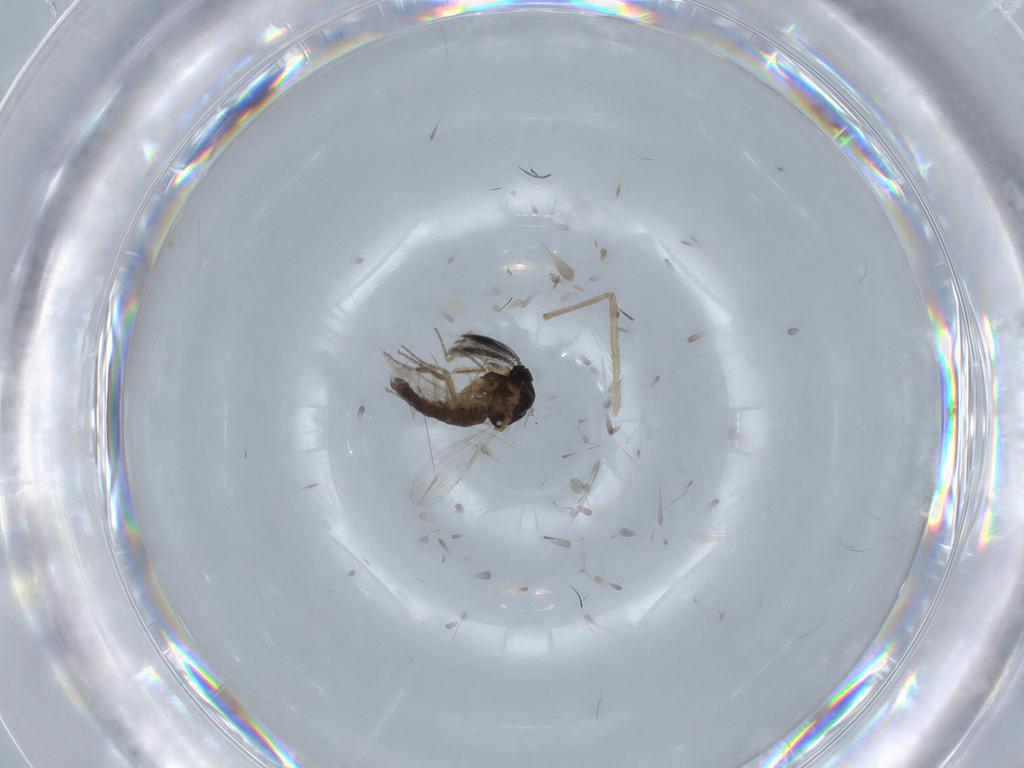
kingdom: Animalia
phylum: Arthropoda
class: Insecta
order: Diptera
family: Ceratopogonidae
